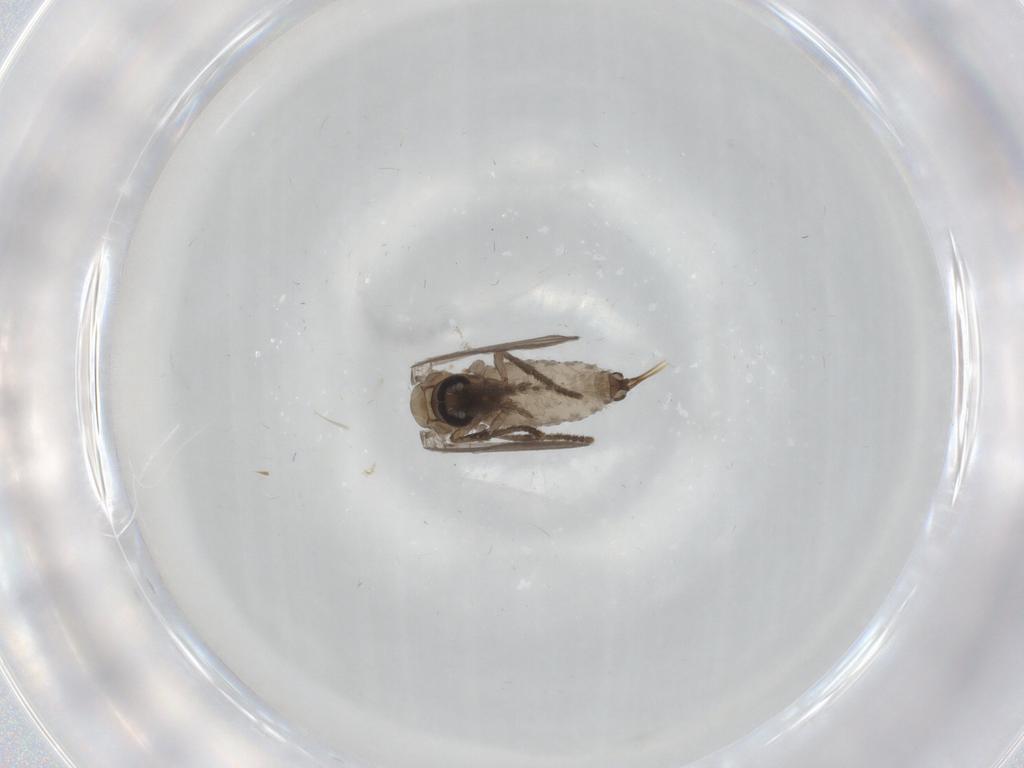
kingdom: Animalia
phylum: Arthropoda
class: Insecta
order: Diptera
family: Psychodidae
